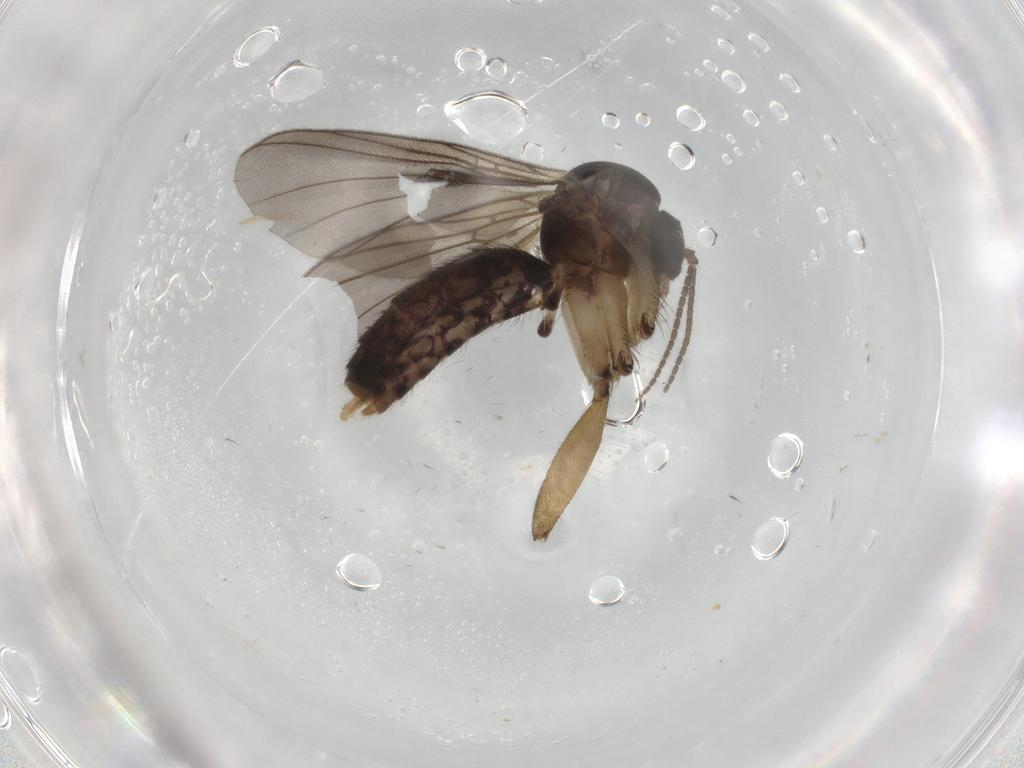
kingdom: Animalia
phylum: Arthropoda
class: Insecta
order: Diptera
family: Mycetophilidae
